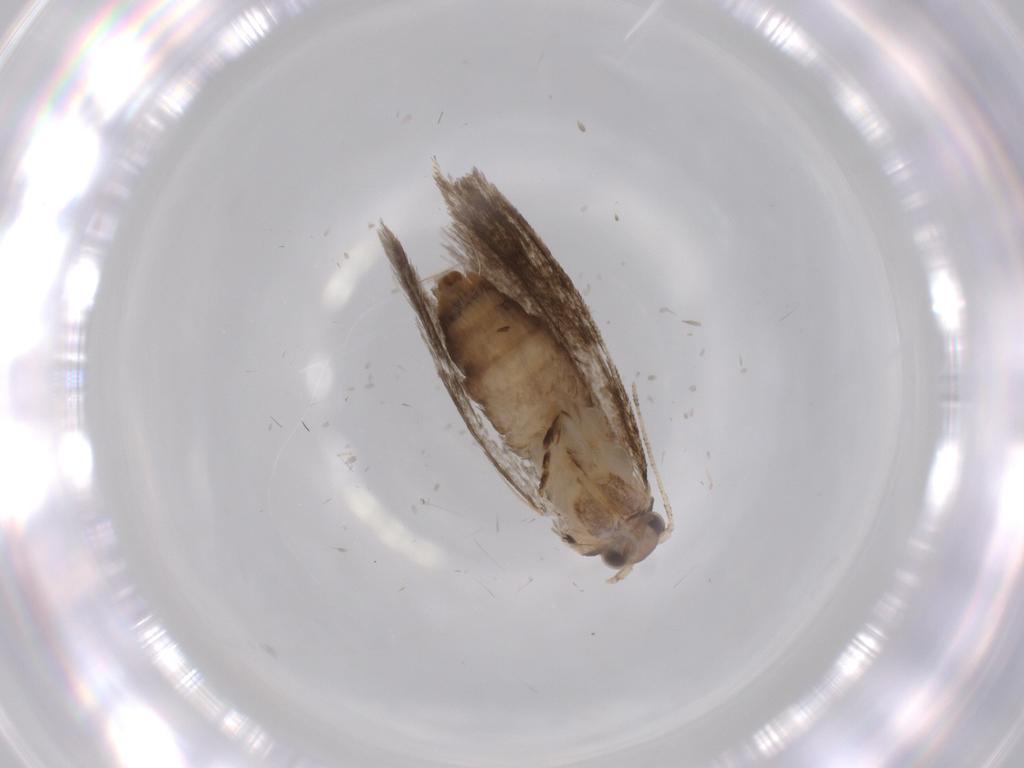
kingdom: Animalia
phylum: Arthropoda
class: Insecta
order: Lepidoptera
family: Tineidae
